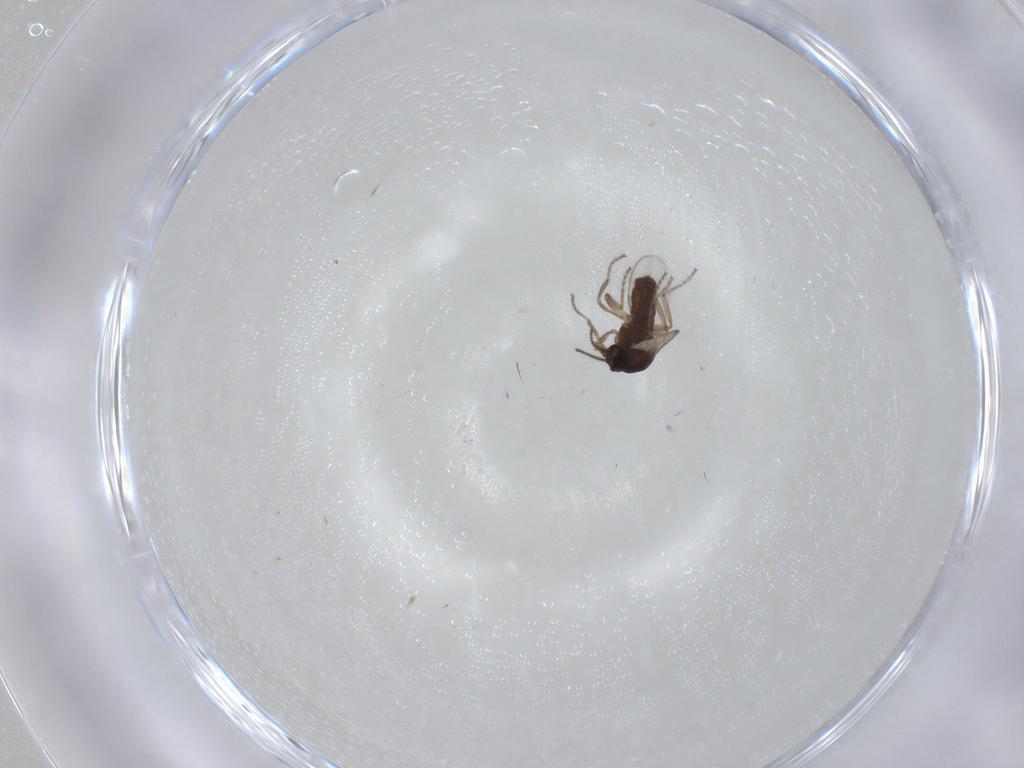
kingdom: Animalia
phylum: Arthropoda
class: Insecta
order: Diptera
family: Ceratopogonidae
